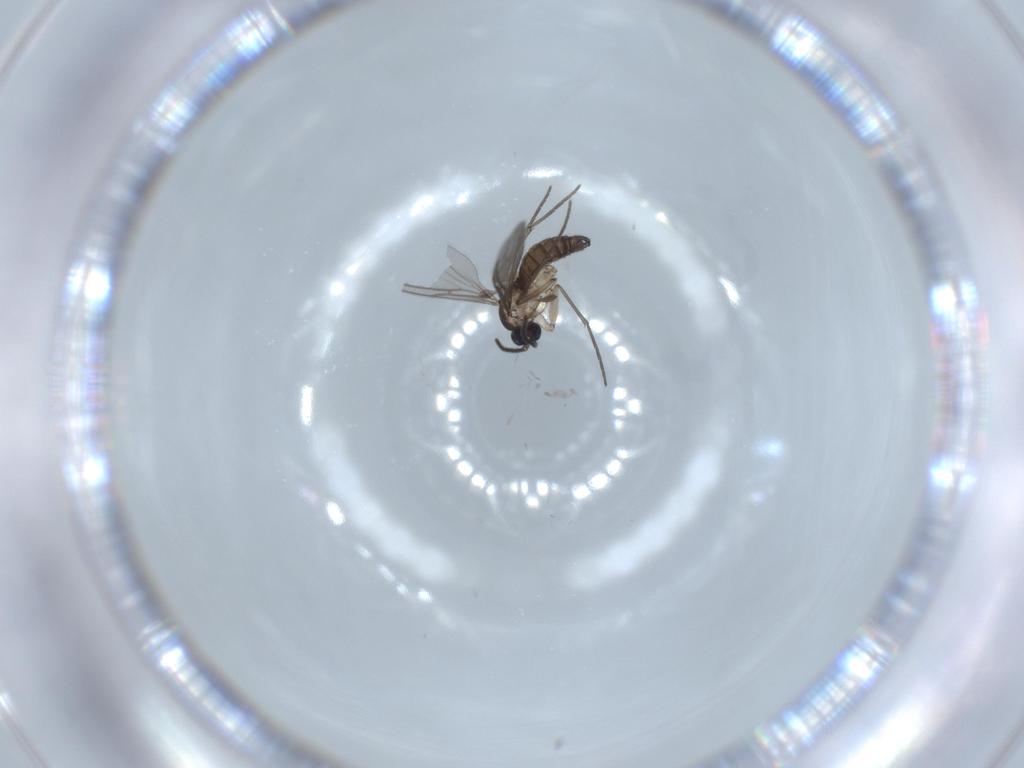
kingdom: Animalia
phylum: Arthropoda
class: Insecta
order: Diptera
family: Sciaridae
